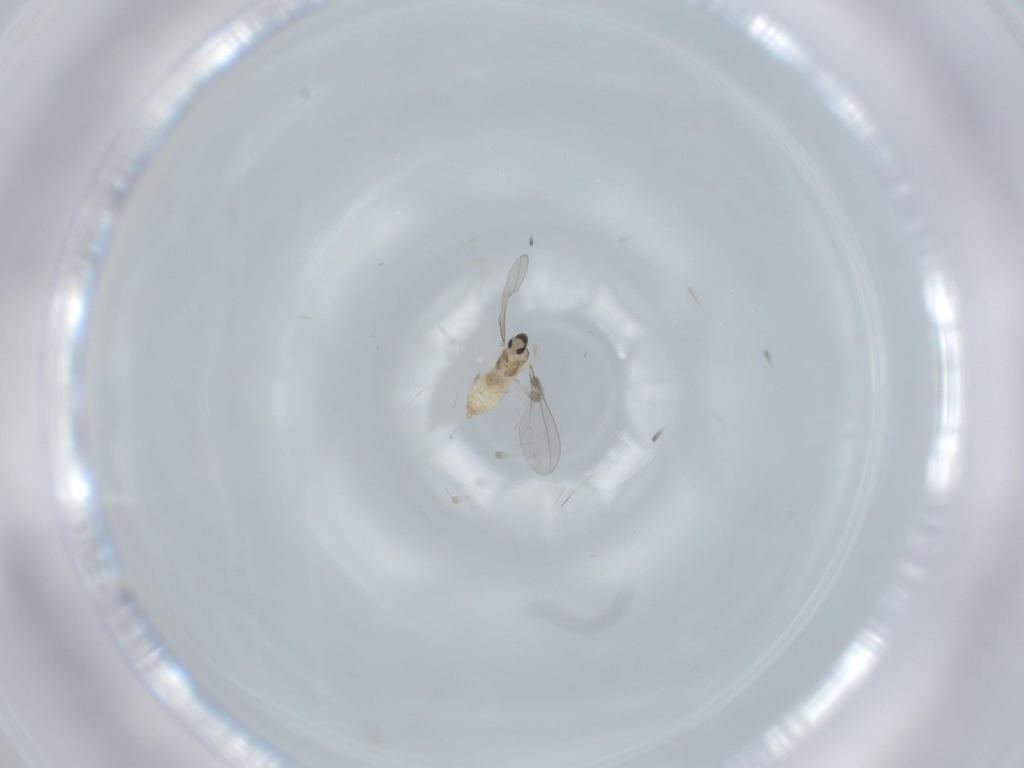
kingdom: Animalia
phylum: Arthropoda
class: Insecta
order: Diptera
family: Cecidomyiidae
